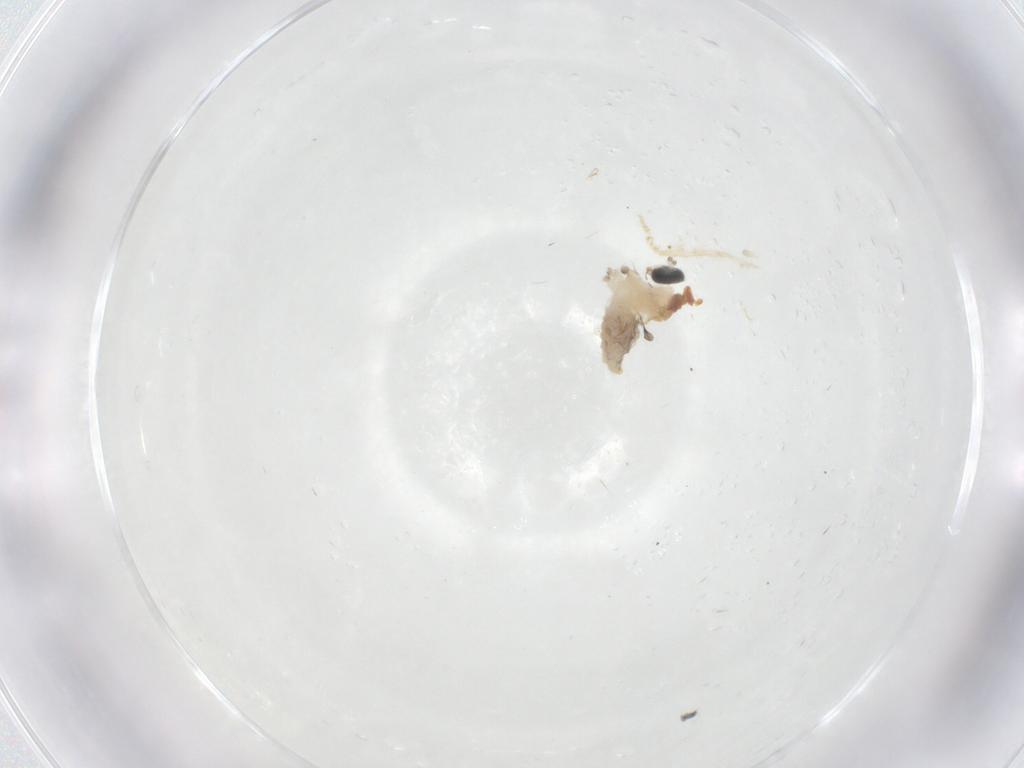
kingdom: Animalia
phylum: Arthropoda
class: Insecta
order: Diptera
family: Cecidomyiidae
